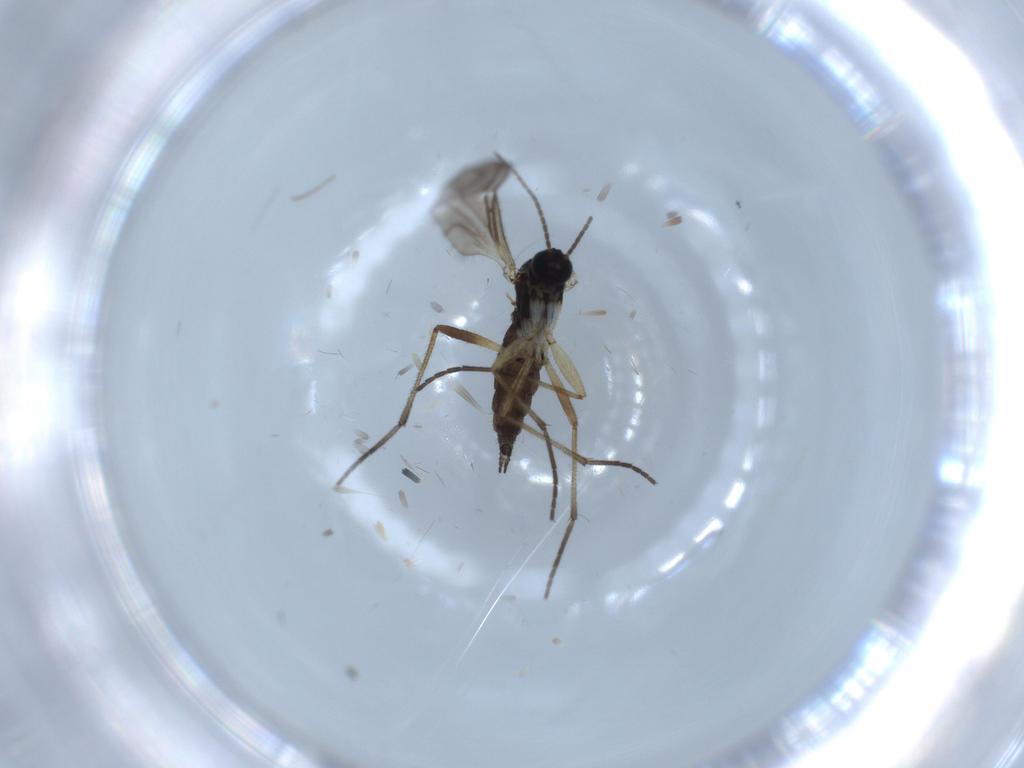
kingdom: Animalia
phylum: Arthropoda
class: Insecta
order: Diptera
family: Sciaridae
